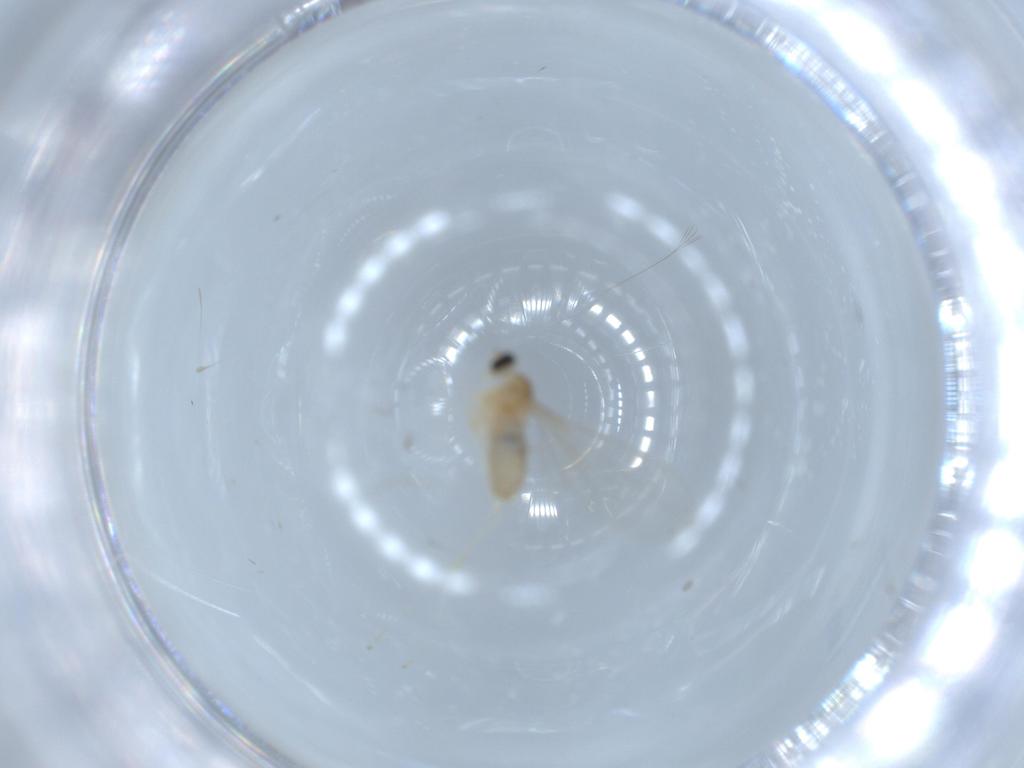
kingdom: Animalia
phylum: Arthropoda
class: Insecta
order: Diptera
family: Cecidomyiidae
